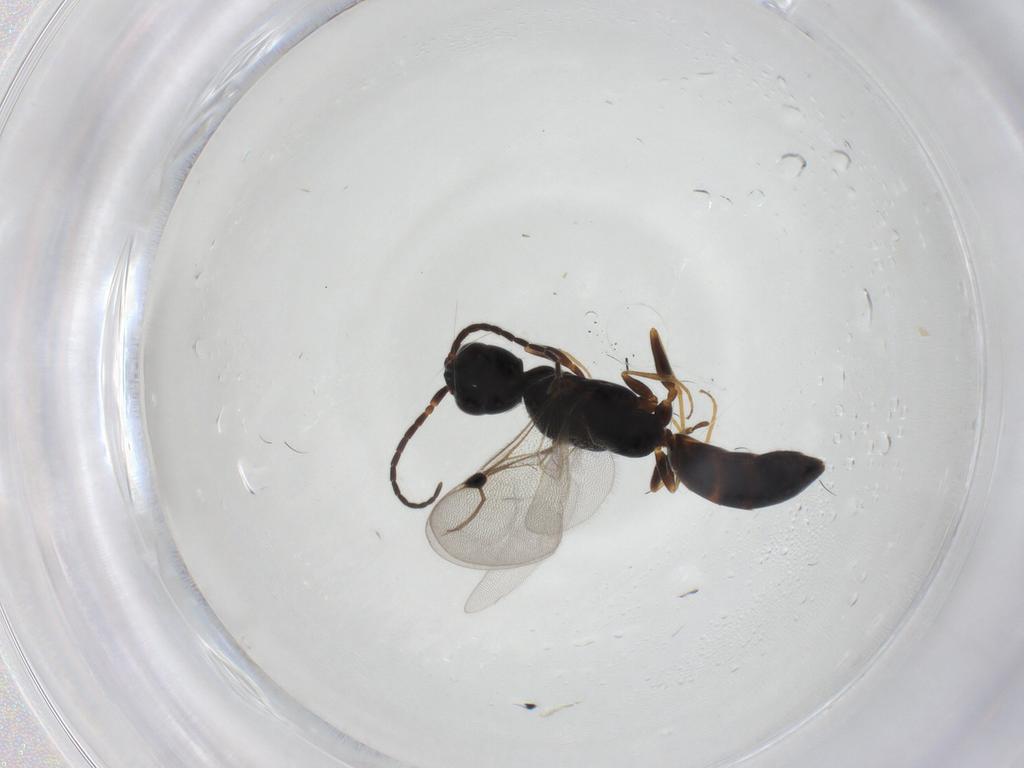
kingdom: Animalia
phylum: Arthropoda
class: Insecta
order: Hymenoptera
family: Bethylidae
